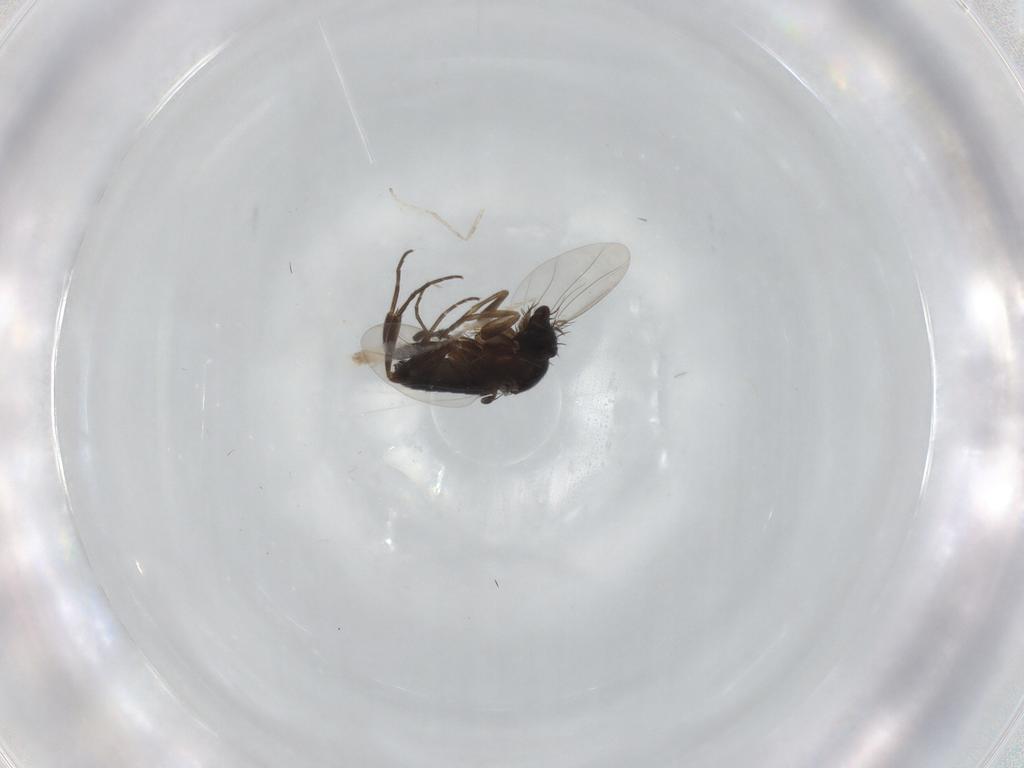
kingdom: Animalia
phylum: Arthropoda
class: Insecta
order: Diptera
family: Phoridae
